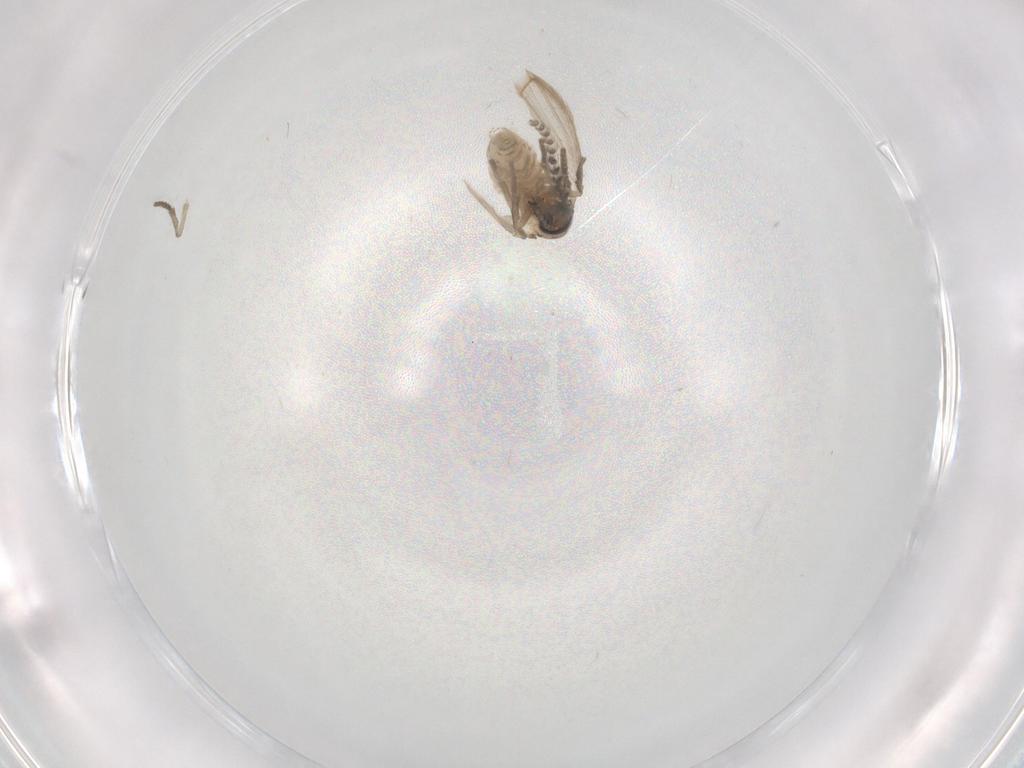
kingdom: Animalia
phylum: Arthropoda
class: Insecta
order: Diptera
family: Psychodidae
